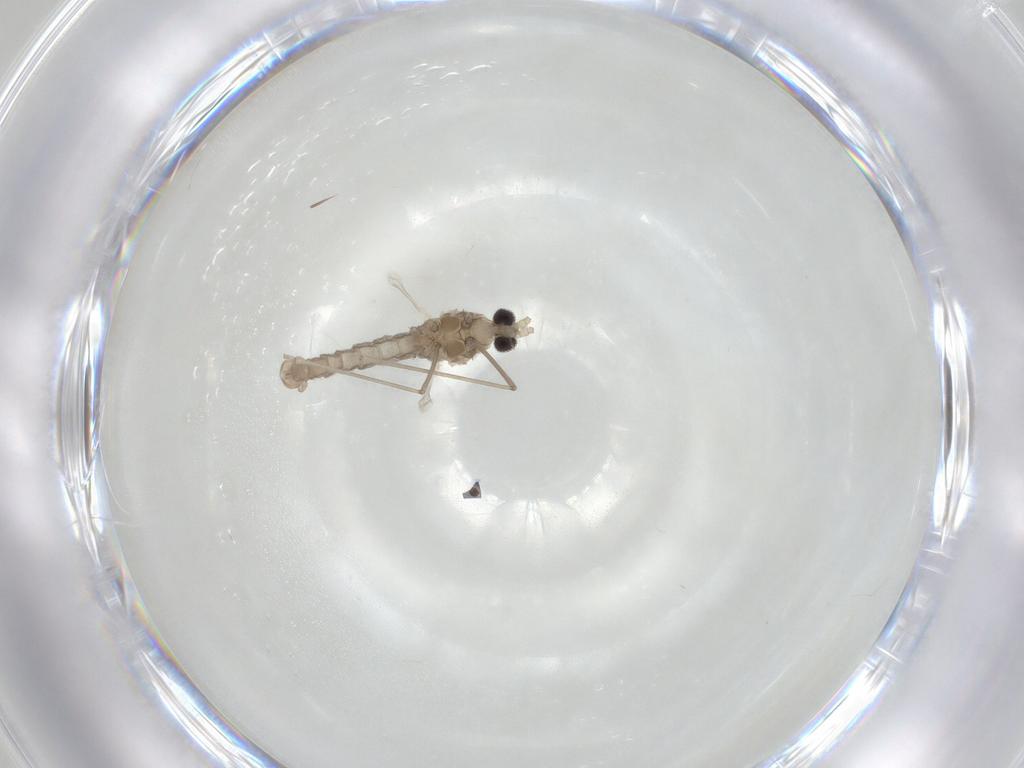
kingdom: Animalia
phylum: Arthropoda
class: Insecta
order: Diptera
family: Cecidomyiidae
